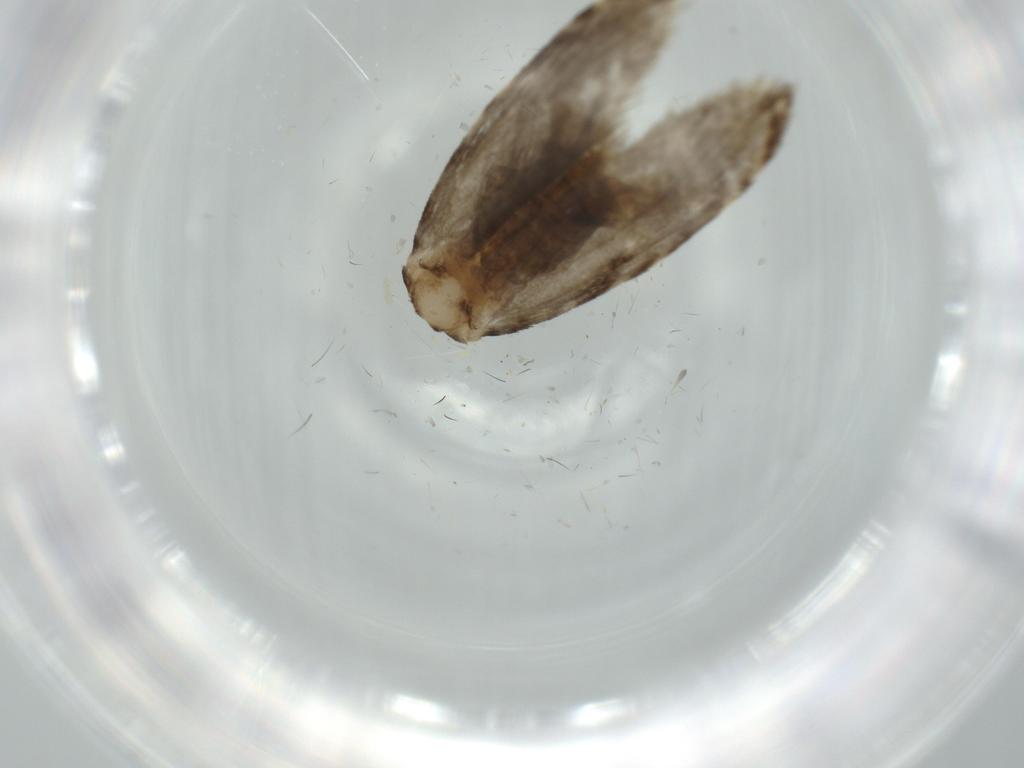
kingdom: Animalia
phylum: Arthropoda
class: Insecta
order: Lepidoptera
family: Tineidae
